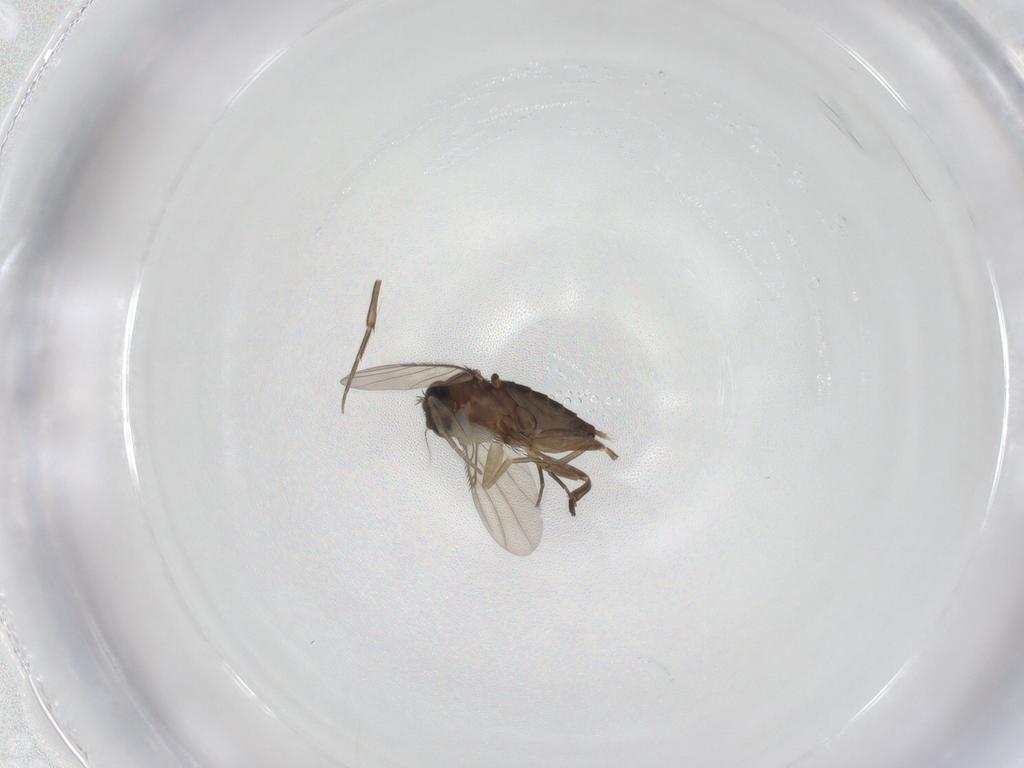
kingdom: Animalia
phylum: Arthropoda
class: Insecta
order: Diptera
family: Phoridae
